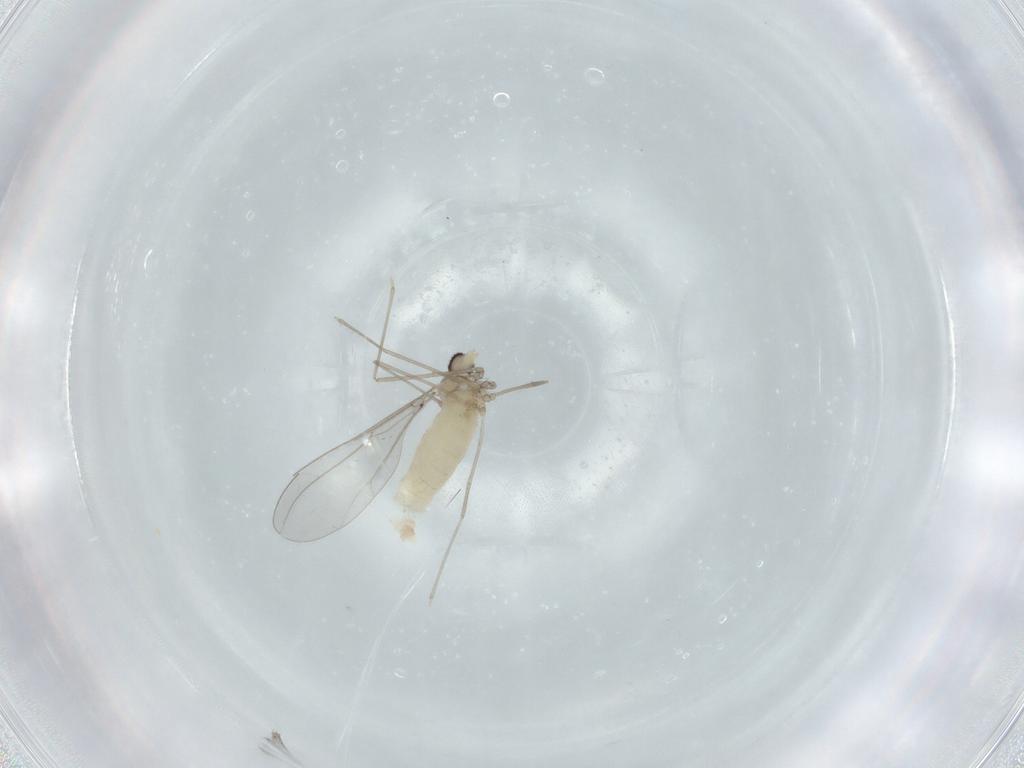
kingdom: Animalia
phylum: Arthropoda
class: Insecta
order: Diptera
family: Cecidomyiidae
